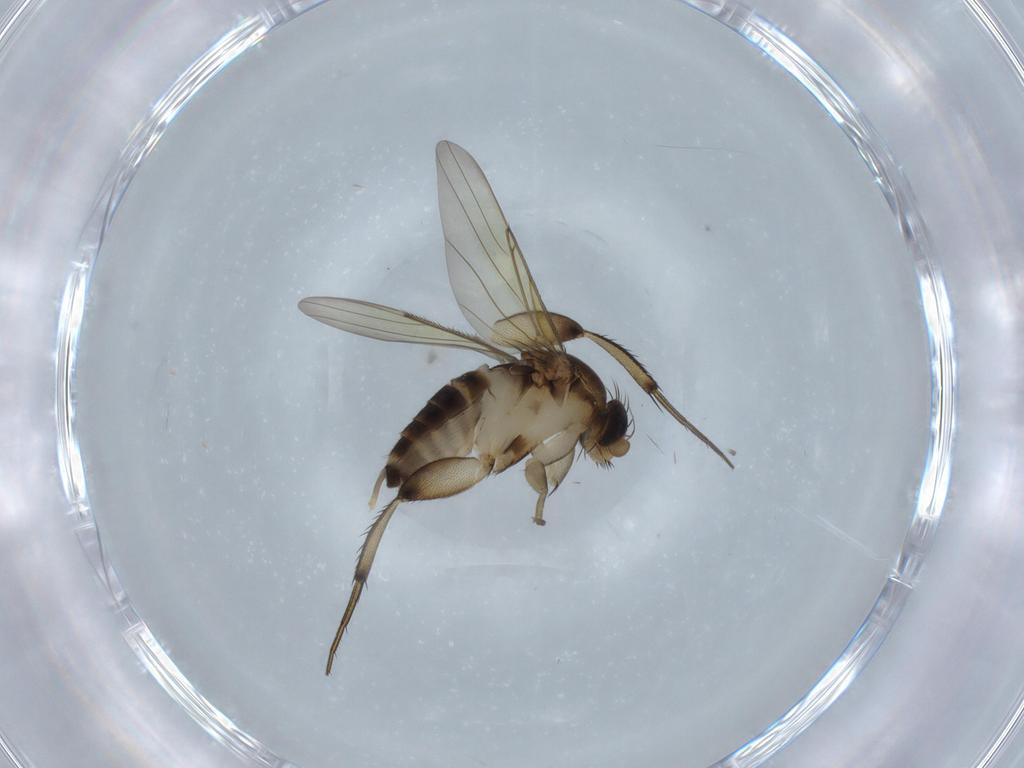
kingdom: Animalia
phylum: Arthropoda
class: Insecta
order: Diptera
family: Phoridae
